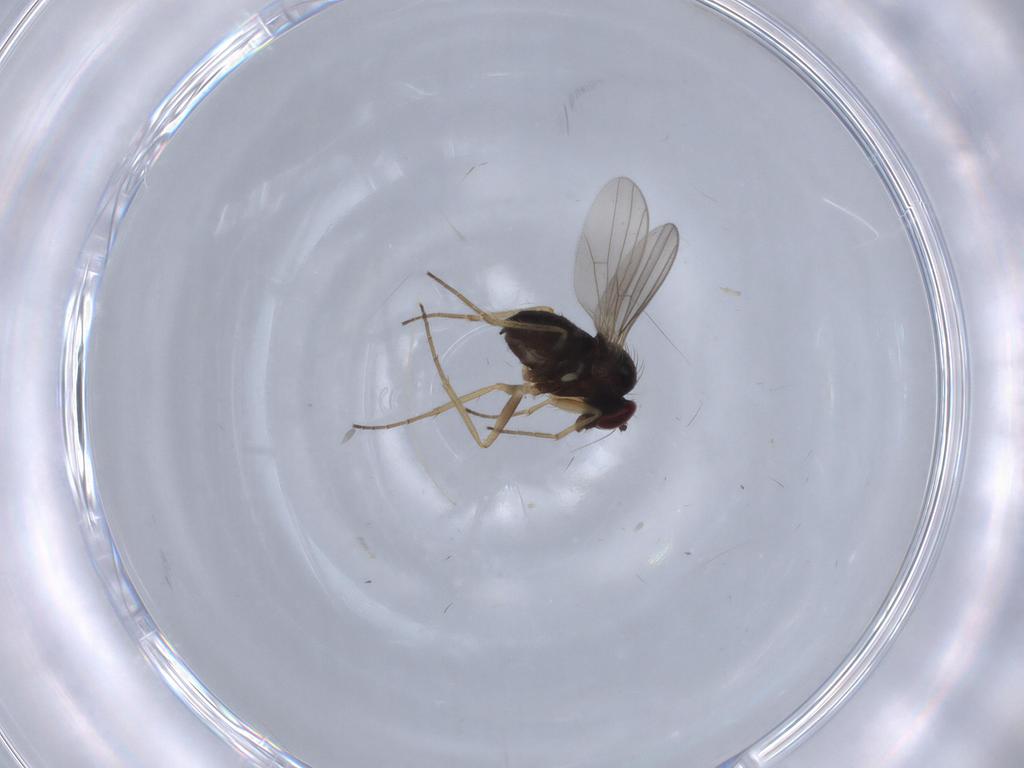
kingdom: Animalia
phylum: Arthropoda
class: Insecta
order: Diptera
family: Dolichopodidae
